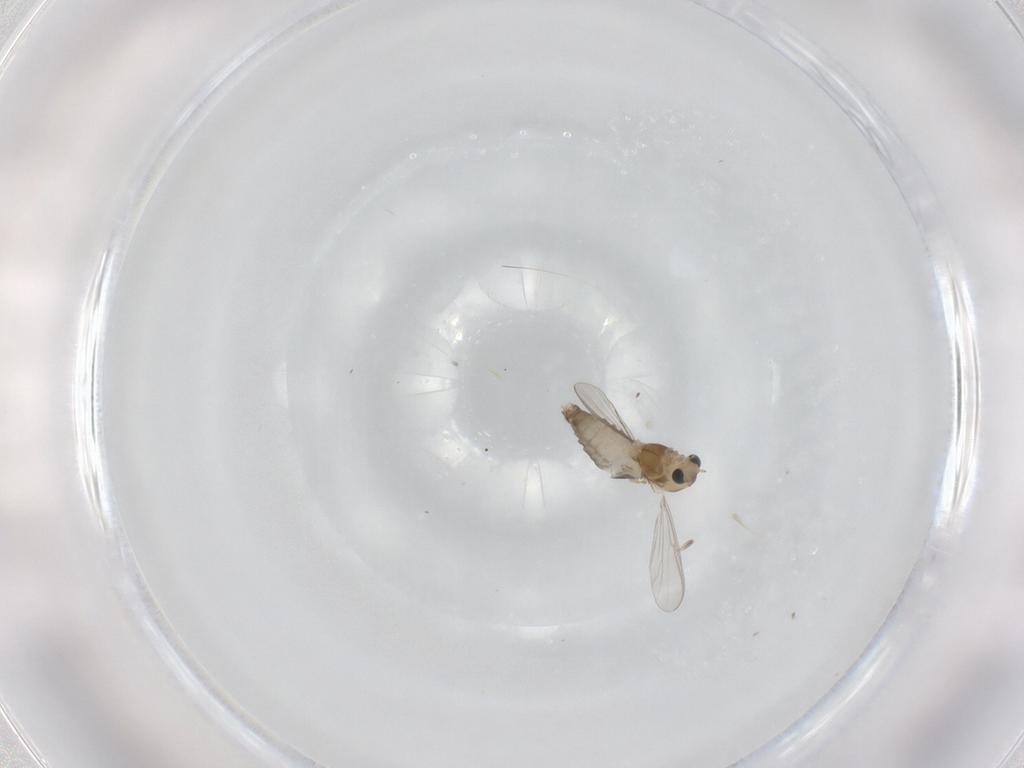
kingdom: Animalia
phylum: Arthropoda
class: Insecta
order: Diptera
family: Chironomidae
